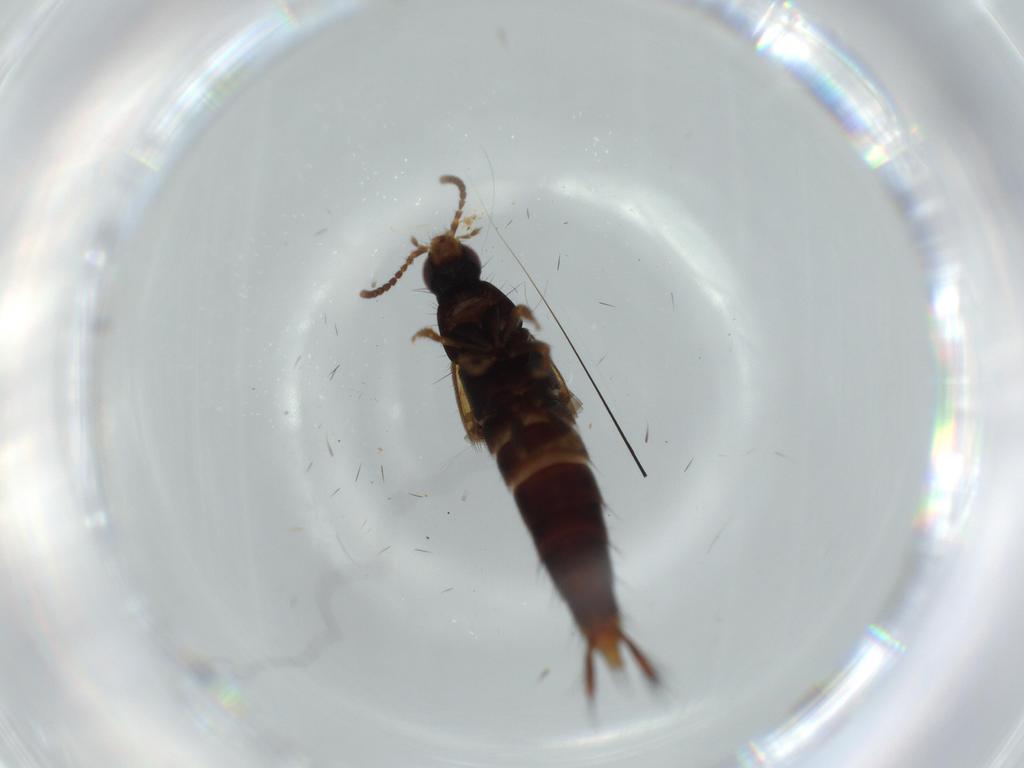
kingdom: Animalia
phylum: Arthropoda
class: Insecta
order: Coleoptera
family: Staphylinidae
